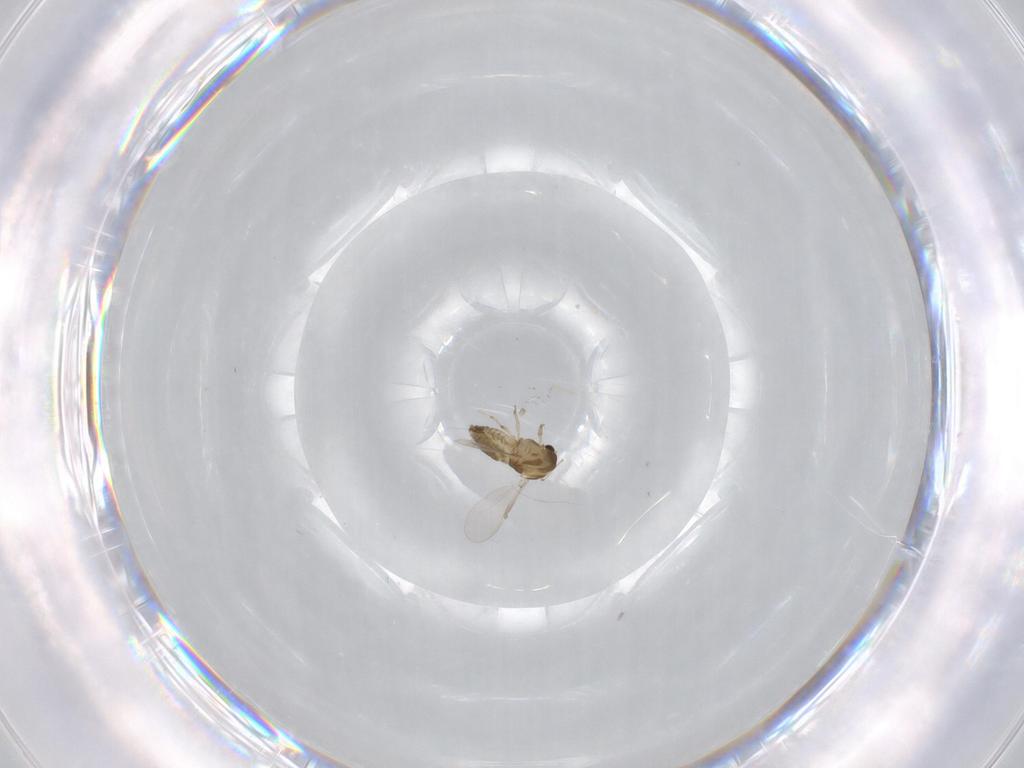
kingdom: Animalia
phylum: Arthropoda
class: Insecta
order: Diptera
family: Chironomidae
